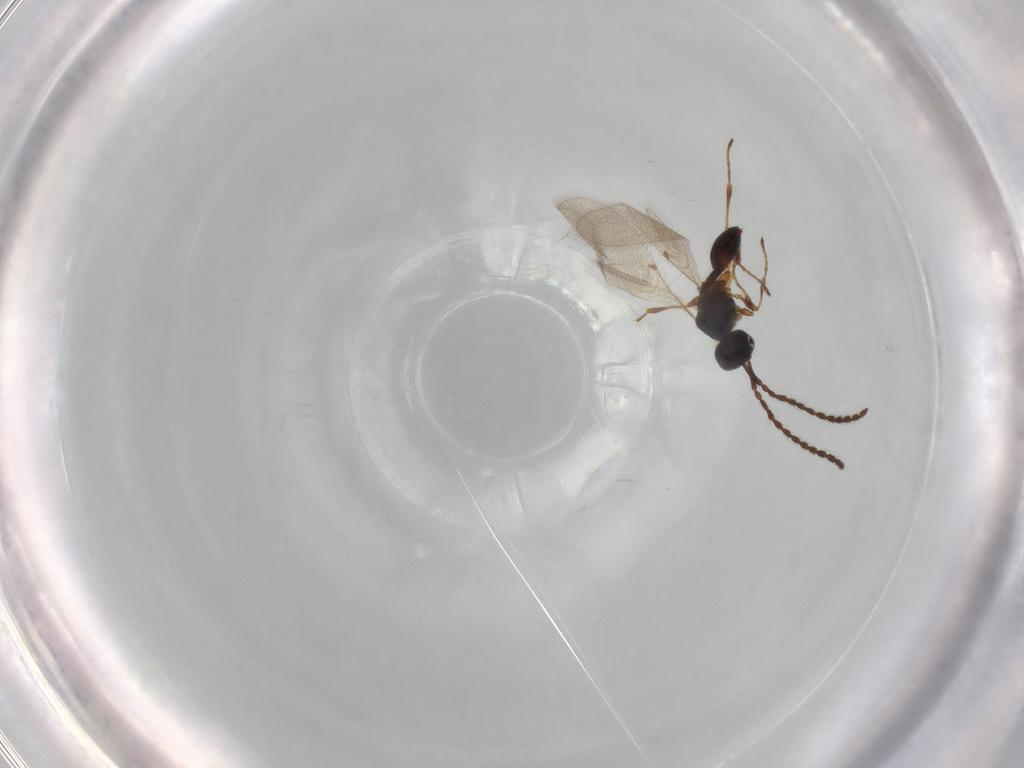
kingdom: Animalia
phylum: Arthropoda
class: Insecta
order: Hymenoptera
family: Diapriidae
